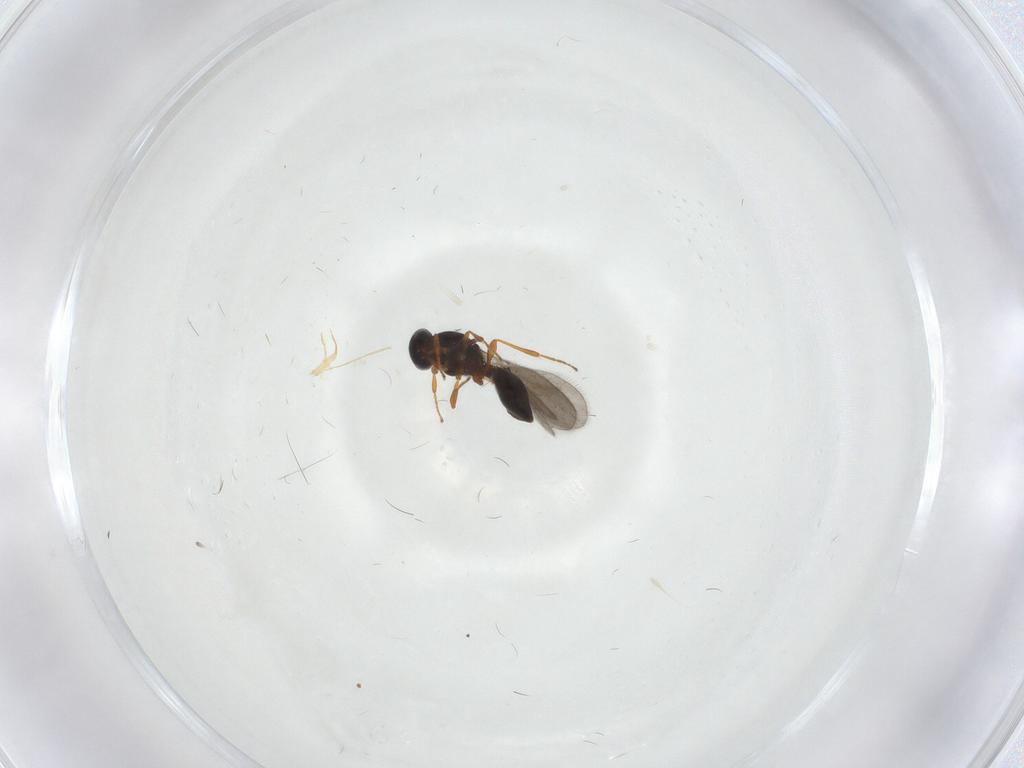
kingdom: Animalia
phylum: Arthropoda
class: Insecta
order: Hymenoptera
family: Platygastridae
